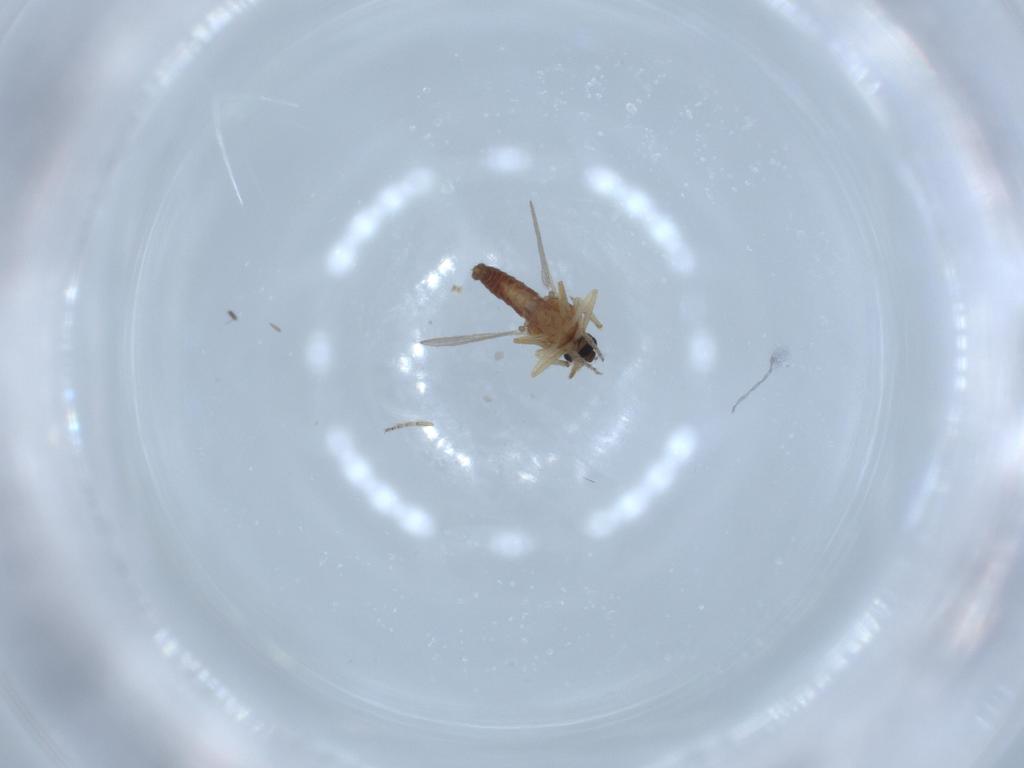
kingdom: Animalia
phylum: Arthropoda
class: Insecta
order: Diptera
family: Ceratopogonidae
